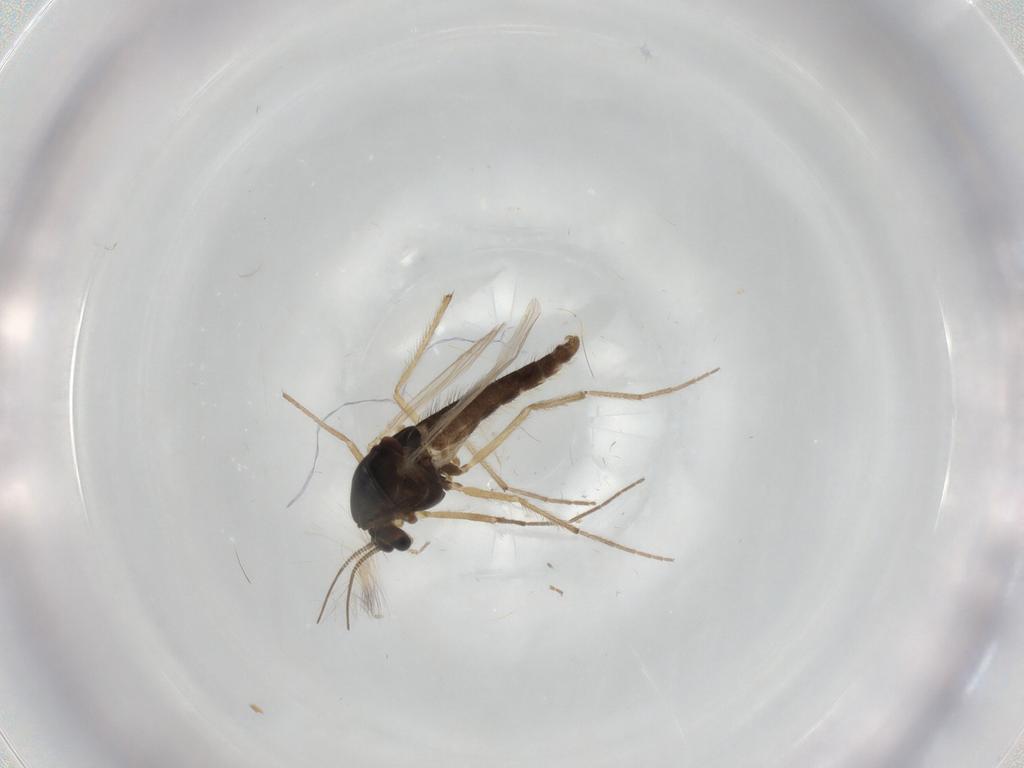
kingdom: Animalia
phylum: Arthropoda
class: Insecta
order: Diptera
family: Chironomidae
